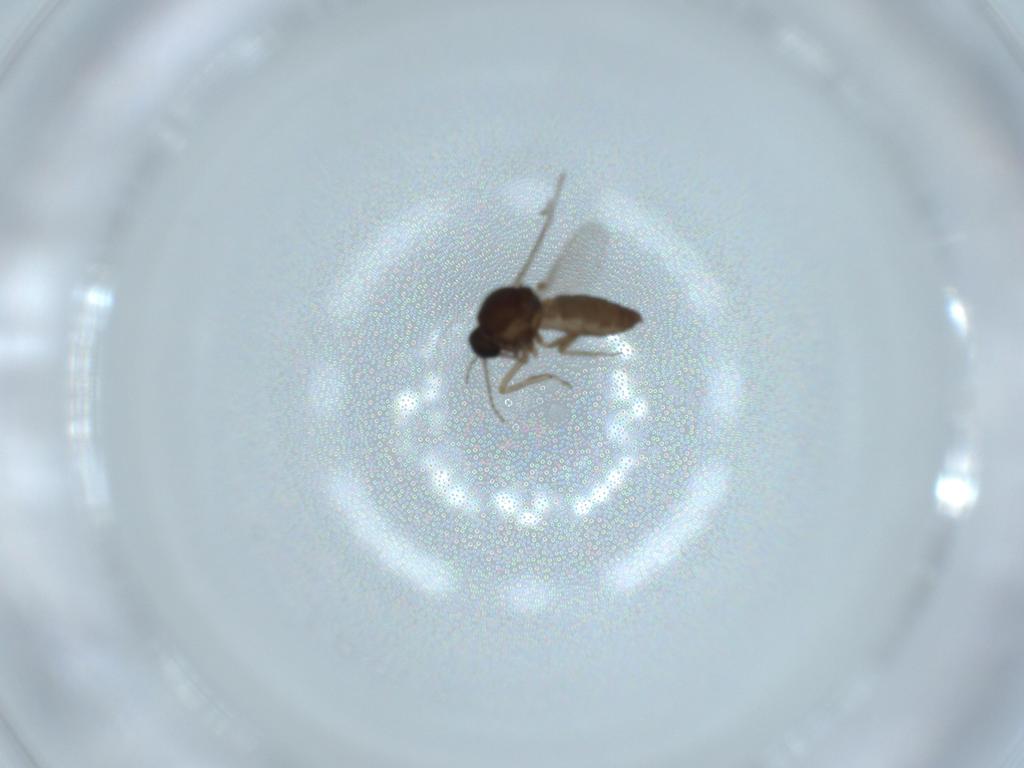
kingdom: Animalia
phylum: Arthropoda
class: Insecta
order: Diptera
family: Ceratopogonidae
